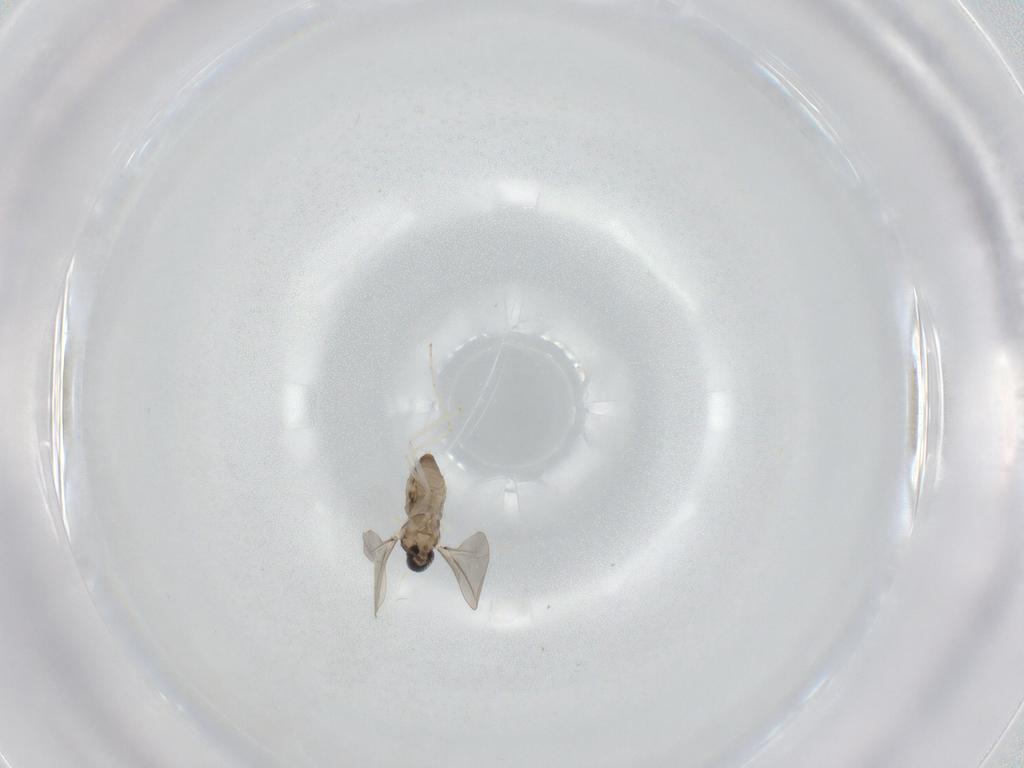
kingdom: Animalia
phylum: Arthropoda
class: Insecta
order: Diptera
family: Cecidomyiidae
